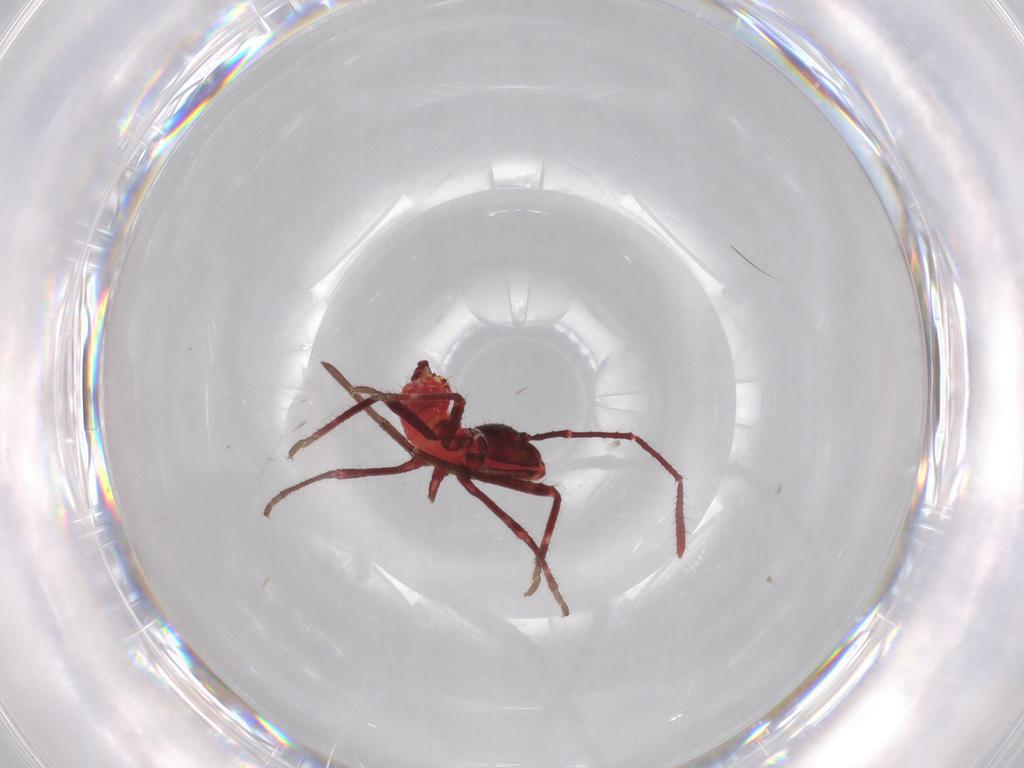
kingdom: Animalia
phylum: Arthropoda
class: Insecta
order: Hemiptera
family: Coreidae
